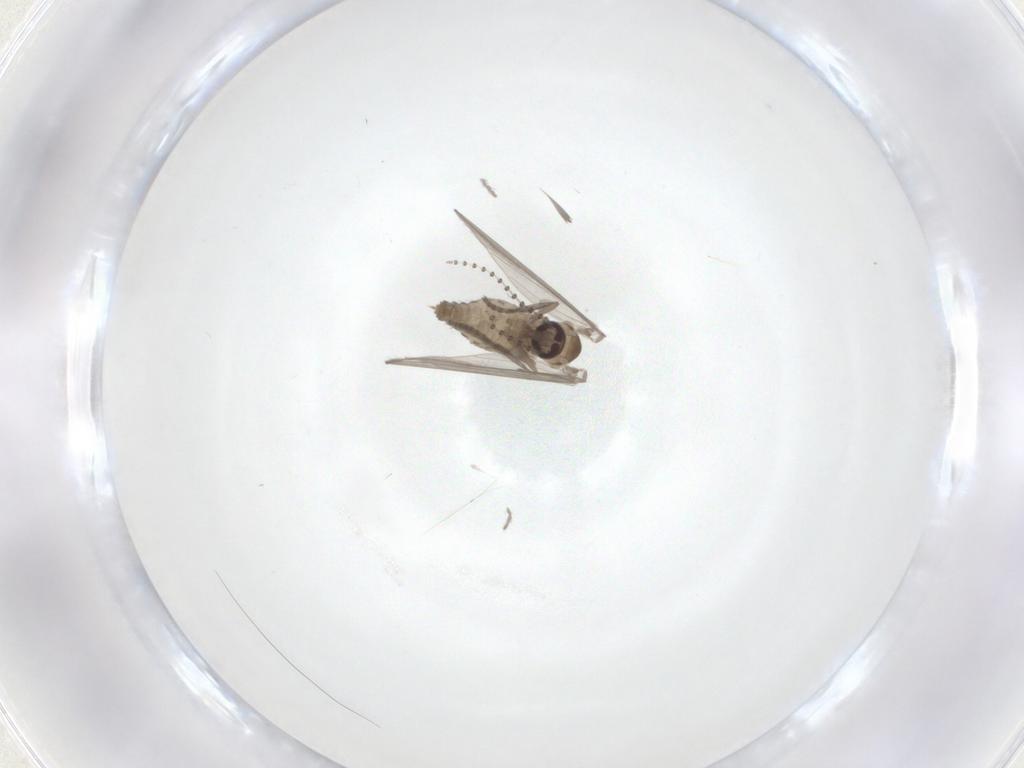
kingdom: Animalia
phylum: Arthropoda
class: Insecta
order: Diptera
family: Psychodidae
